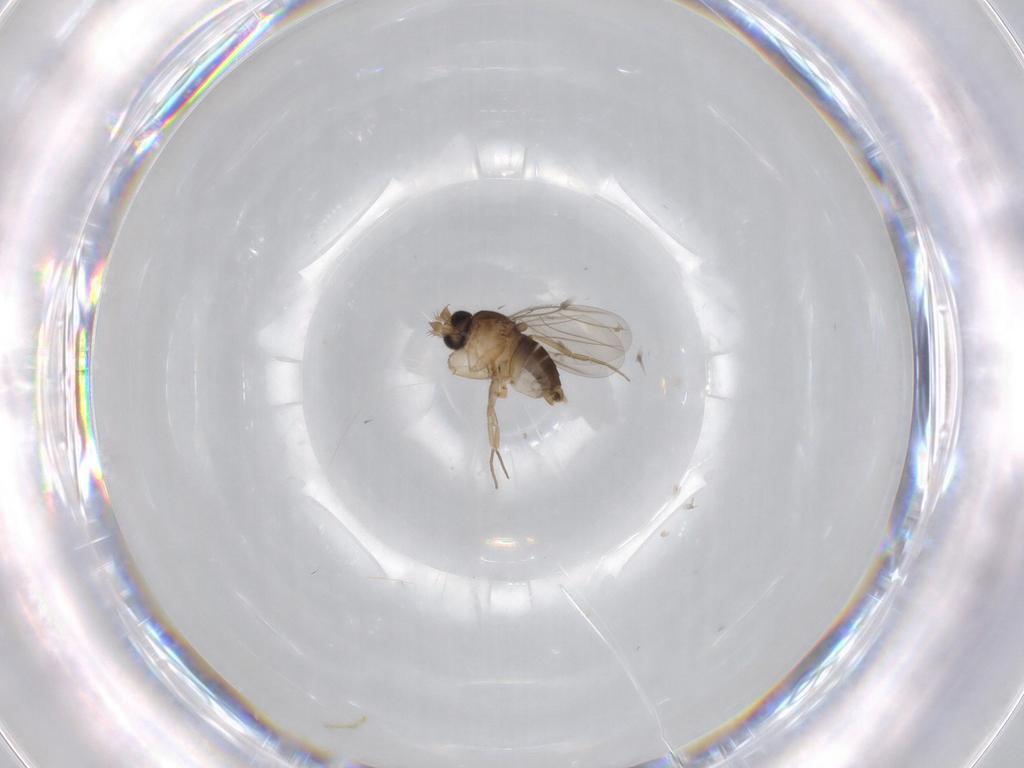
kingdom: Animalia
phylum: Arthropoda
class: Insecta
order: Diptera
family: Phoridae
